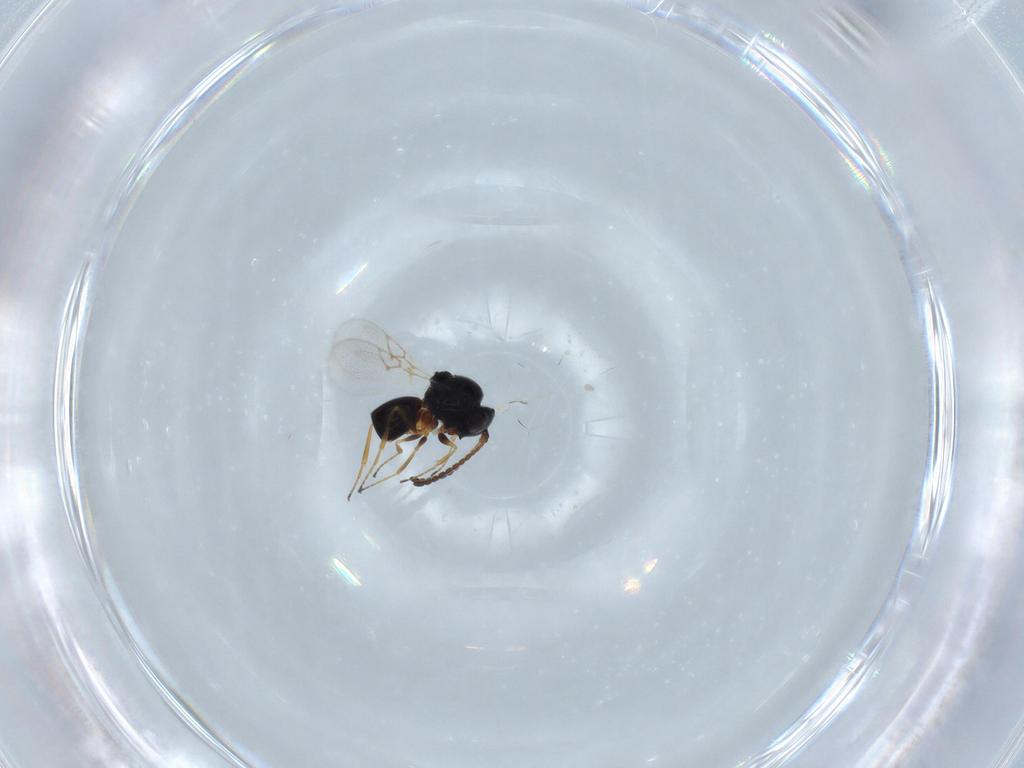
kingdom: Animalia
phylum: Arthropoda
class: Insecta
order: Hymenoptera
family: Figitidae
